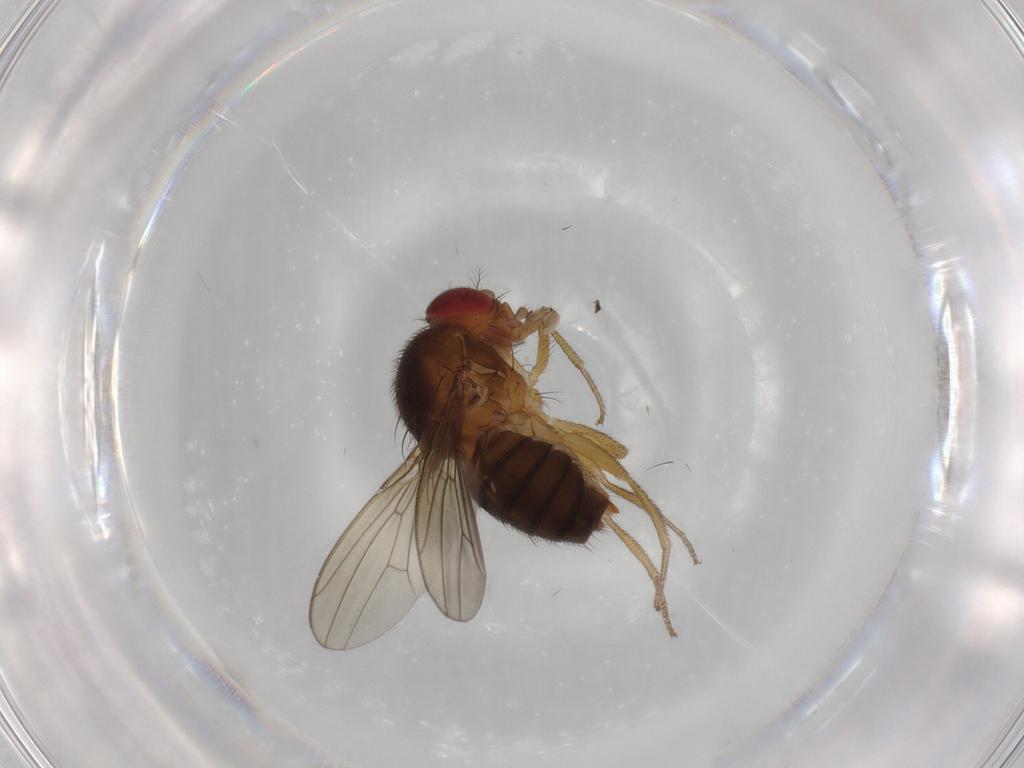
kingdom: Animalia
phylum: Arthropoda
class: Insecta
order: Diptera
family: Drosophilidae
